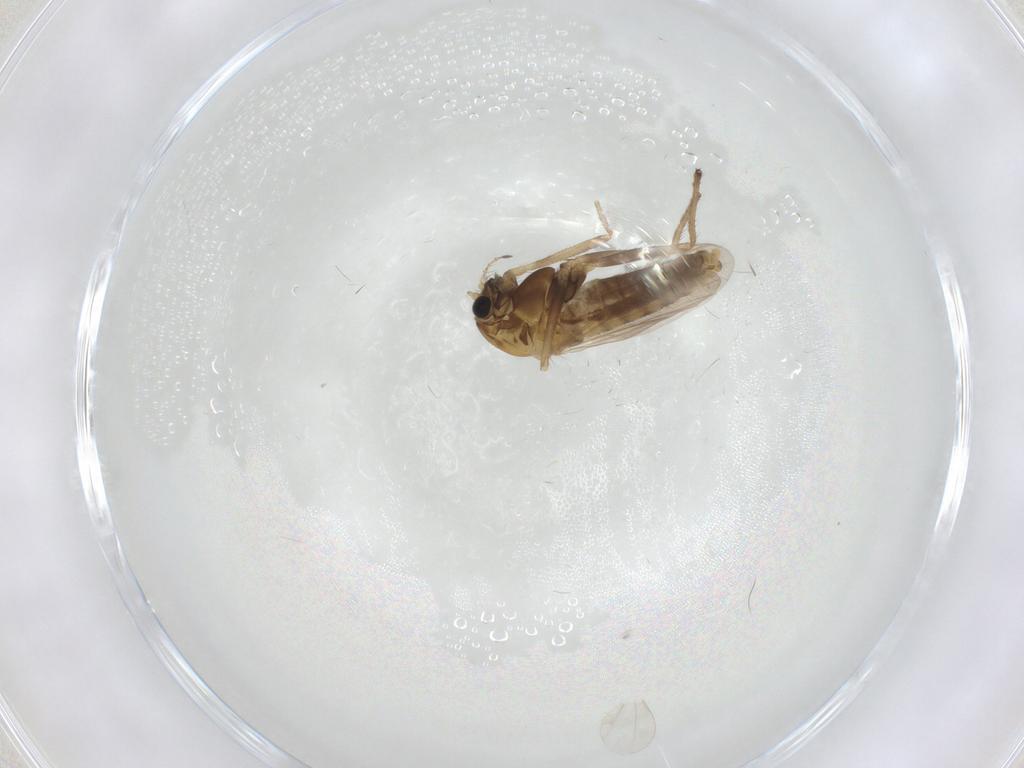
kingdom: Animalia
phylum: Arthropoda
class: Insecta
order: Diptera
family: Chironomidae
